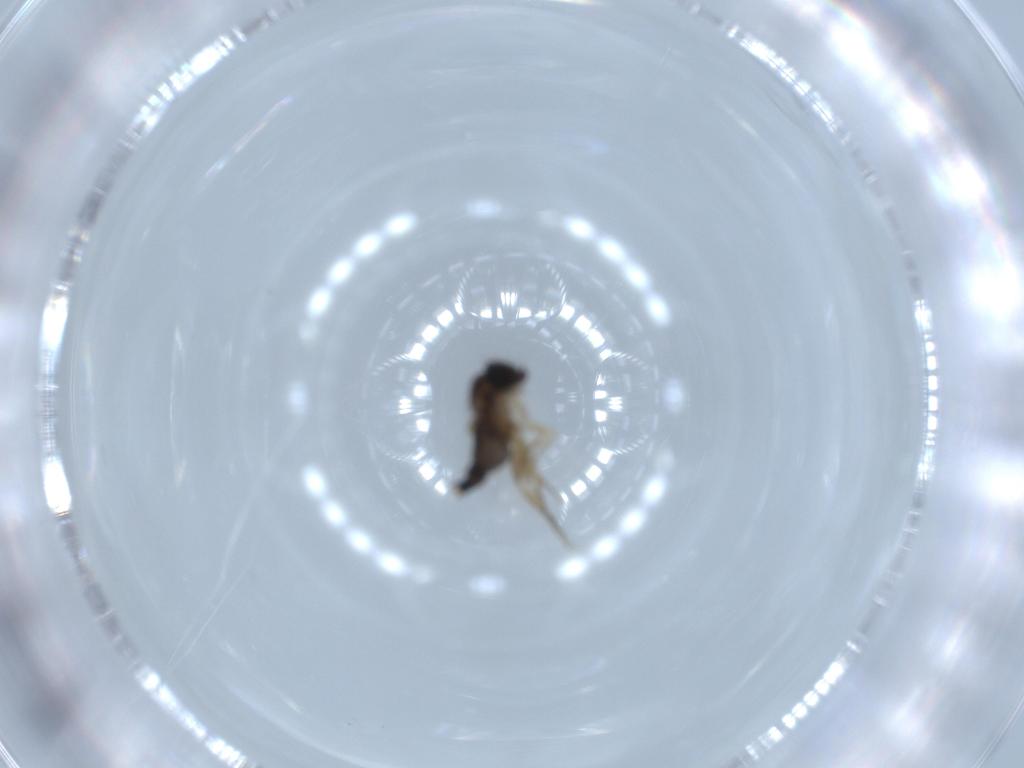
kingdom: Animalia
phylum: Arthropoda
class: Insecta
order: Diptera
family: Phoridae
